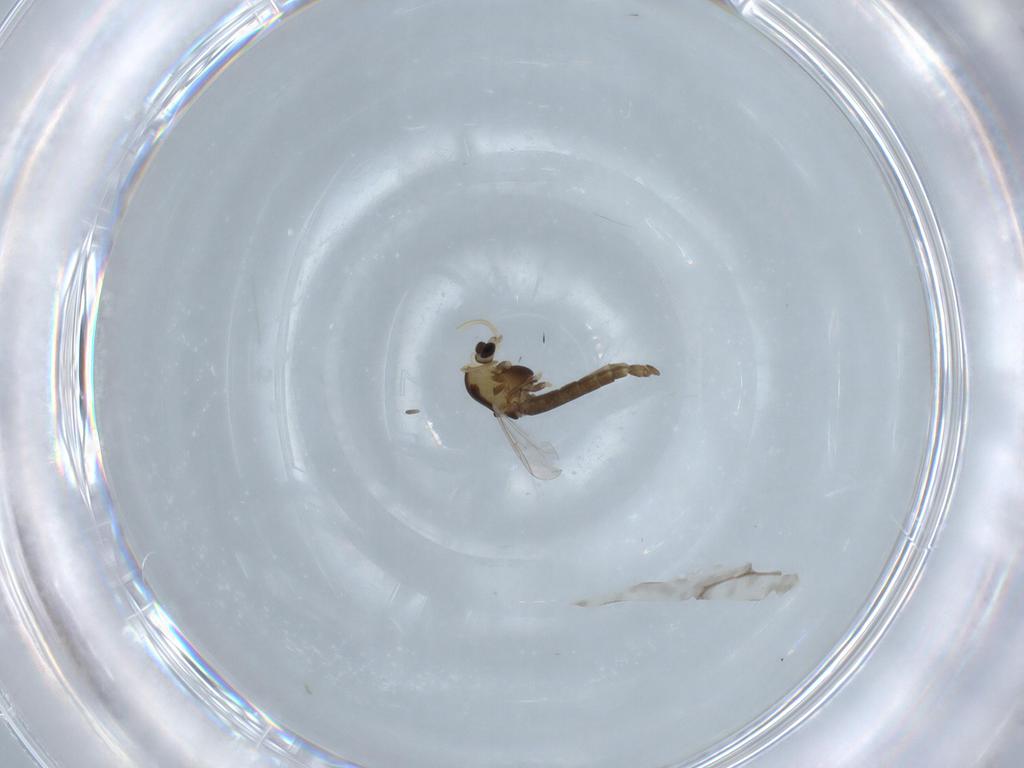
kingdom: Animalia
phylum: Arthropoda
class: Insecta
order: Diptera
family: Chironomidae
